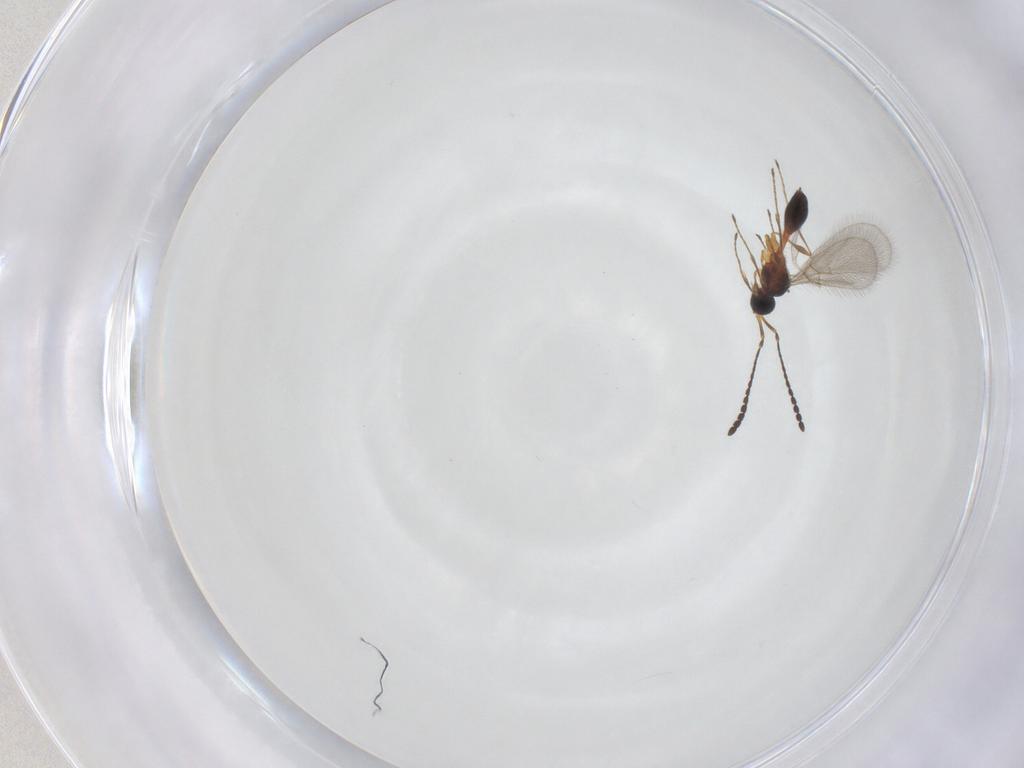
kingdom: Animalia
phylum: Arthropoda
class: Insecta
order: Hymenoptera
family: Diapriidae
